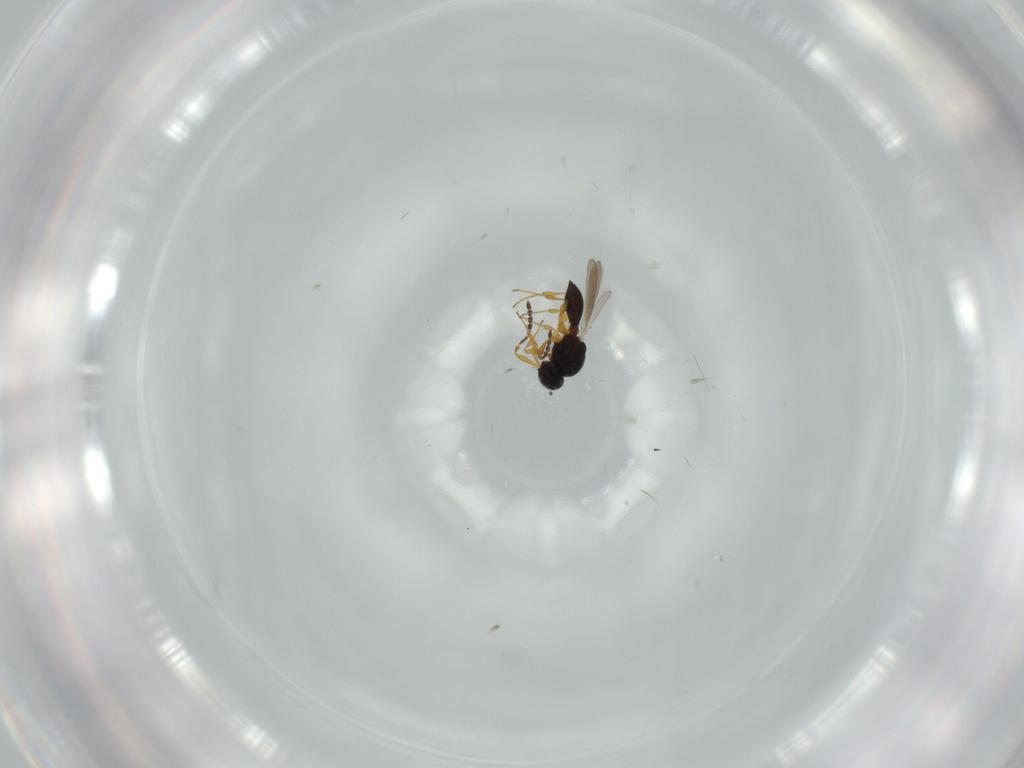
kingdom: Animalia
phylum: Arthropoda
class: Insecta
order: Hymenoptera
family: Platygastridae
